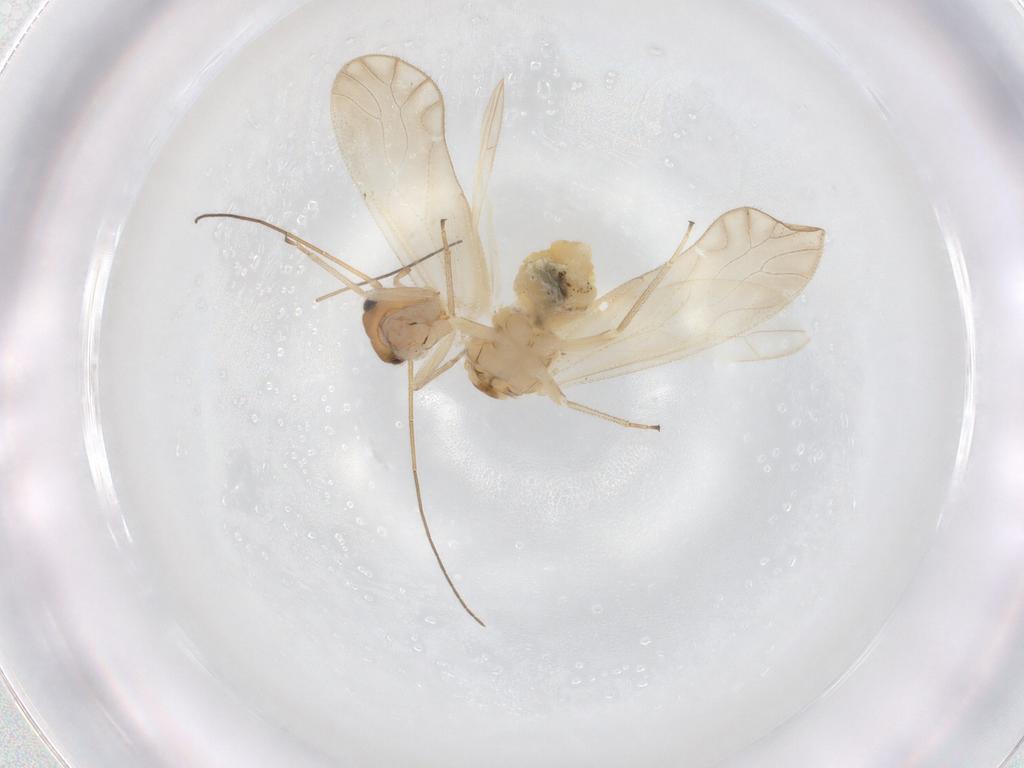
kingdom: Animalia
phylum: Arthropoda
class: Insecta
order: Psocodea
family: Caeciliusidae
